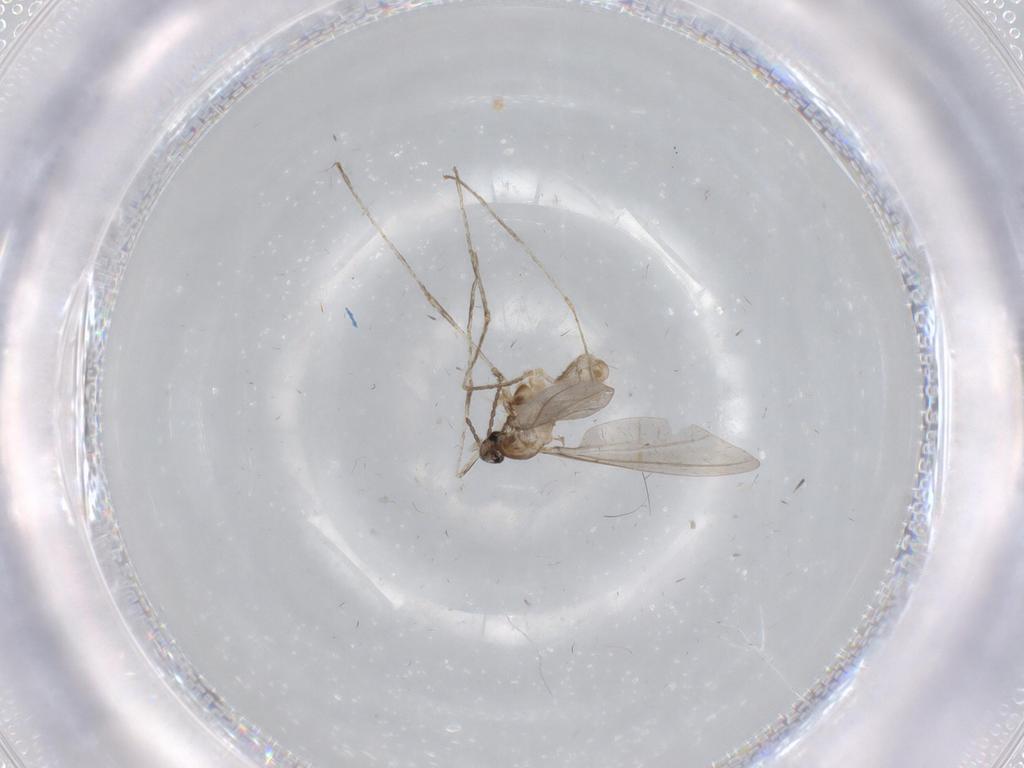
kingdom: Animalia
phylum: Arthropoda
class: Insecta
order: Diptera
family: Cecidomyiidae
